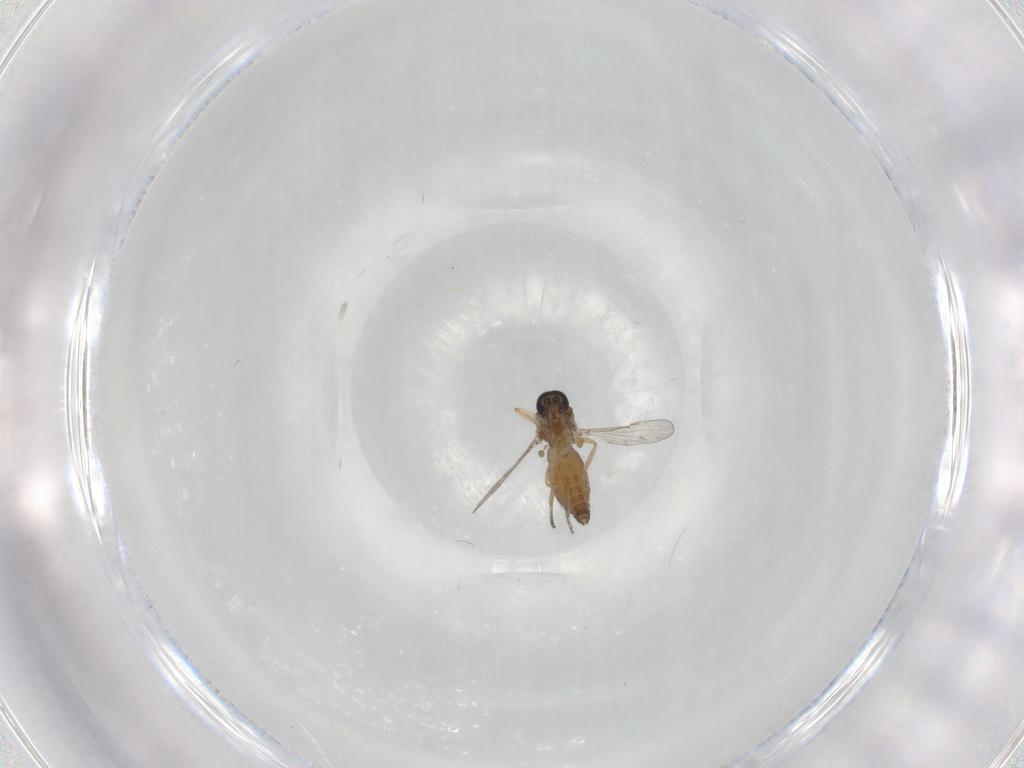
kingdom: Animalia
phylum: Arthropoda
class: Insecta
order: Diptera
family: Ceratopogonidae
